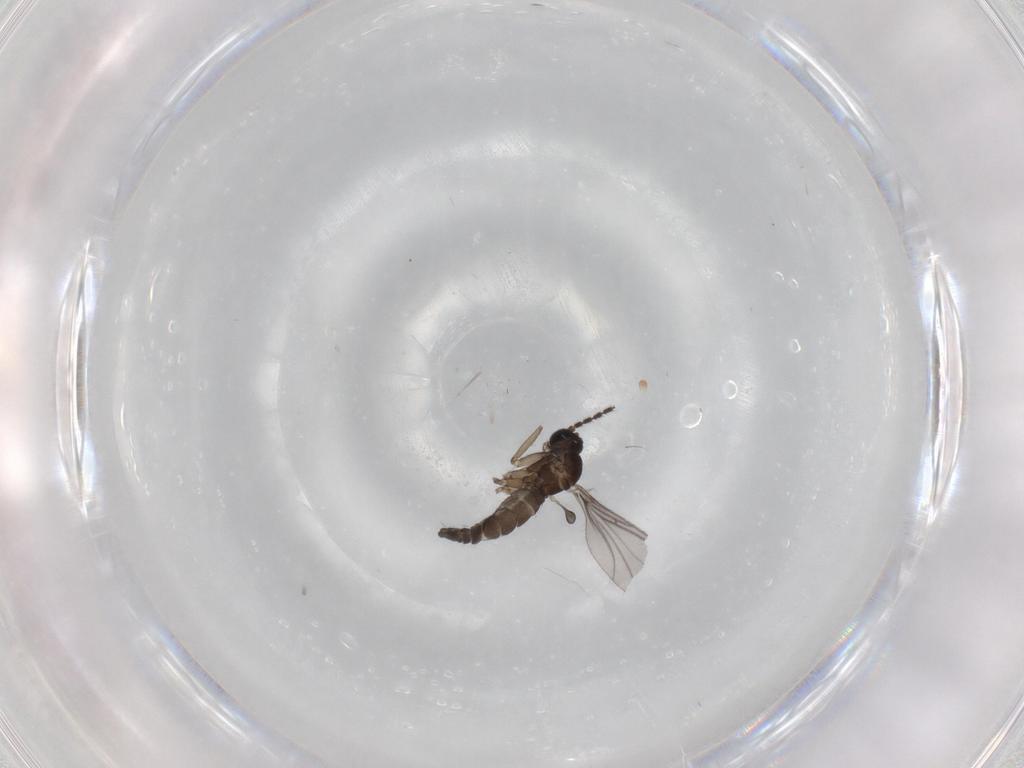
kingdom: Animalia
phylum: Arthropoda
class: Insecta
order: Diptera
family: Sciaridae
